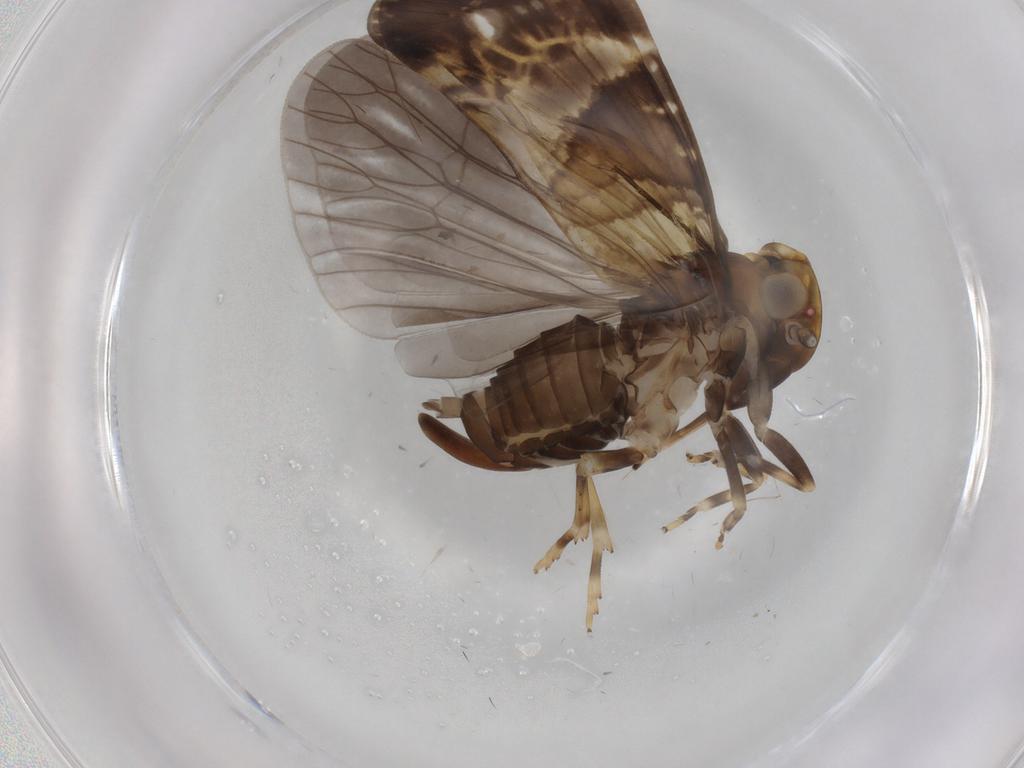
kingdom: Animalia
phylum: Arthropoda
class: Insecta
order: Hemiptera
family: Cixiidae
